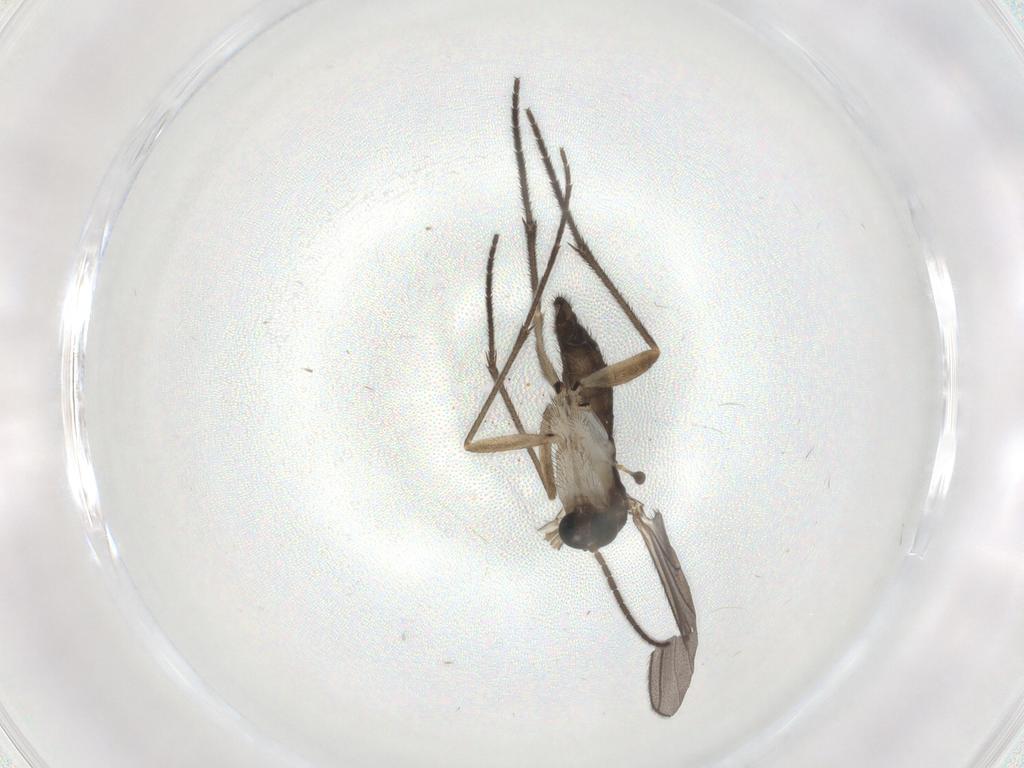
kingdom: Animalia
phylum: Arthropoda
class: Insecta
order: Diptera
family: Sciaridae
